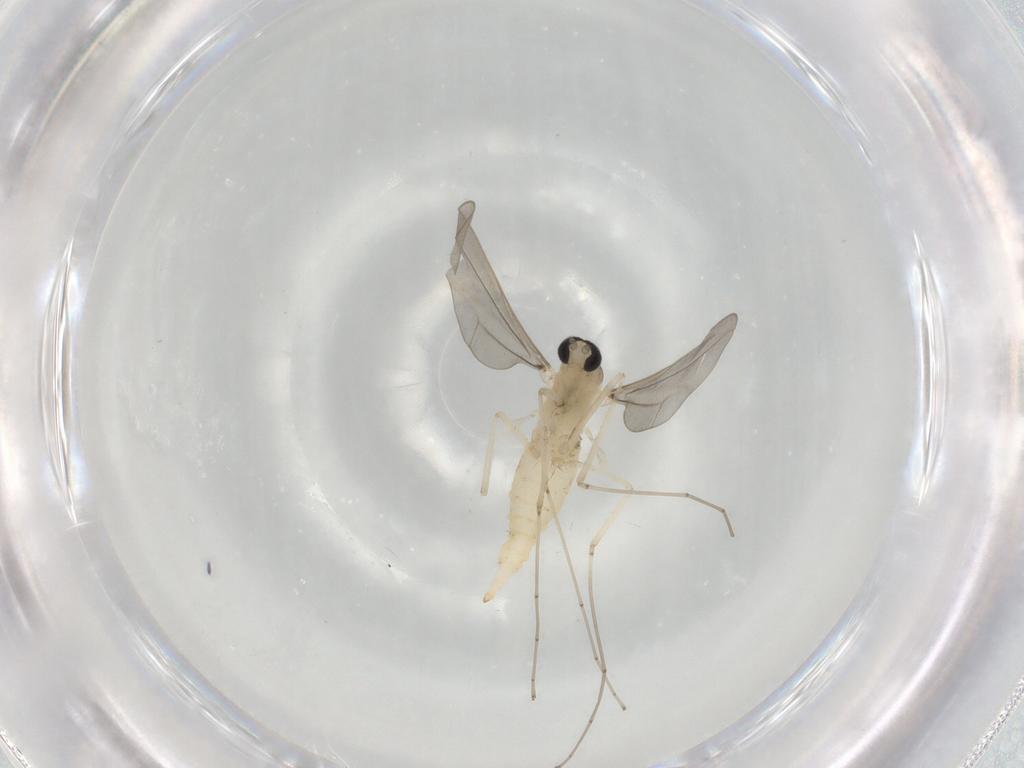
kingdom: Animalia
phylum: Arthropoda
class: Insecta
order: Diptera
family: Cecidomyiidae
